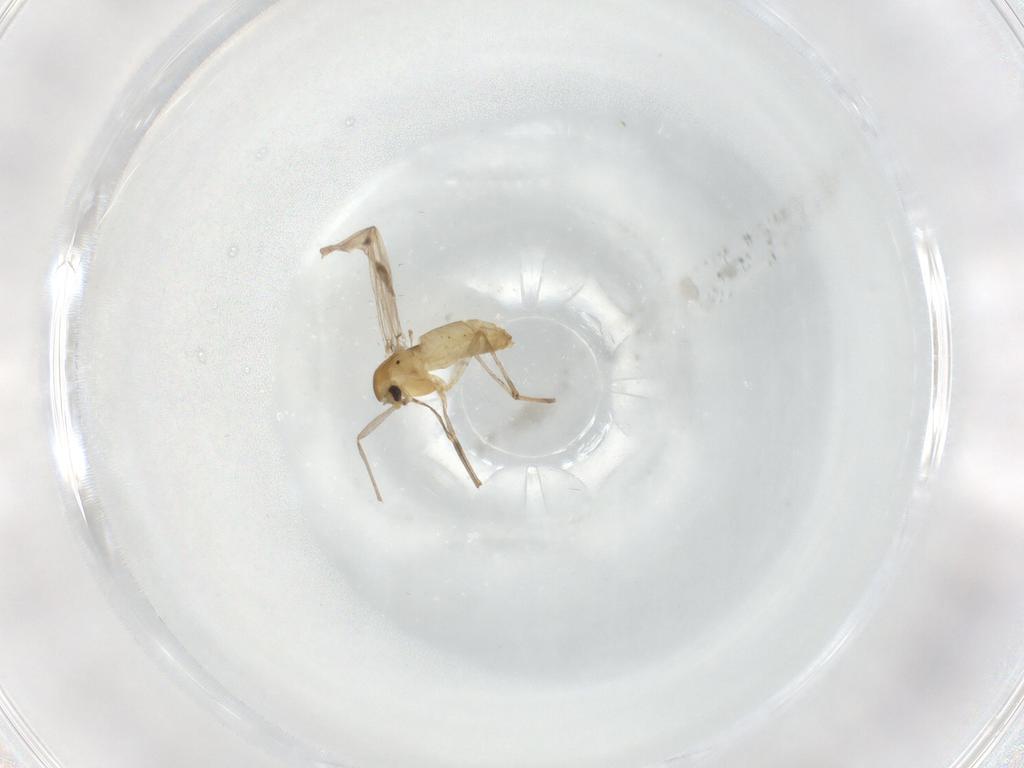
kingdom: Animalia
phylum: Arthropoda
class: Insecta
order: Diptera
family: Chironomidae
